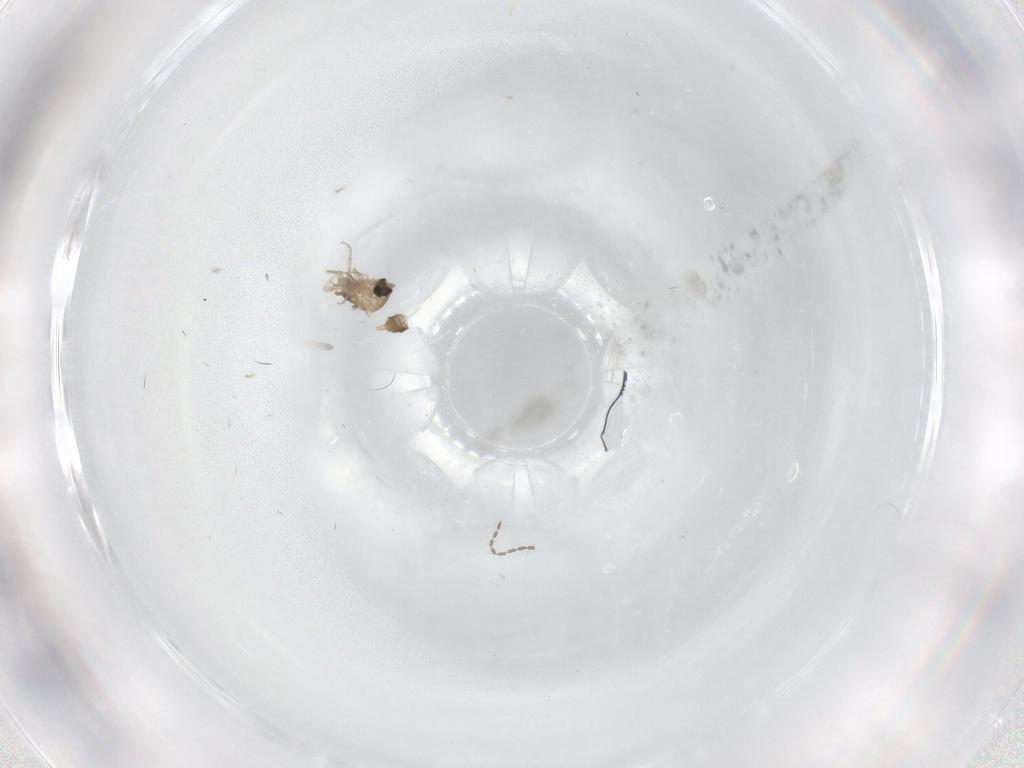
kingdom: Animalia
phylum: Arthropoda
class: Insecta
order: Diptera
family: Cecidomyiidae
